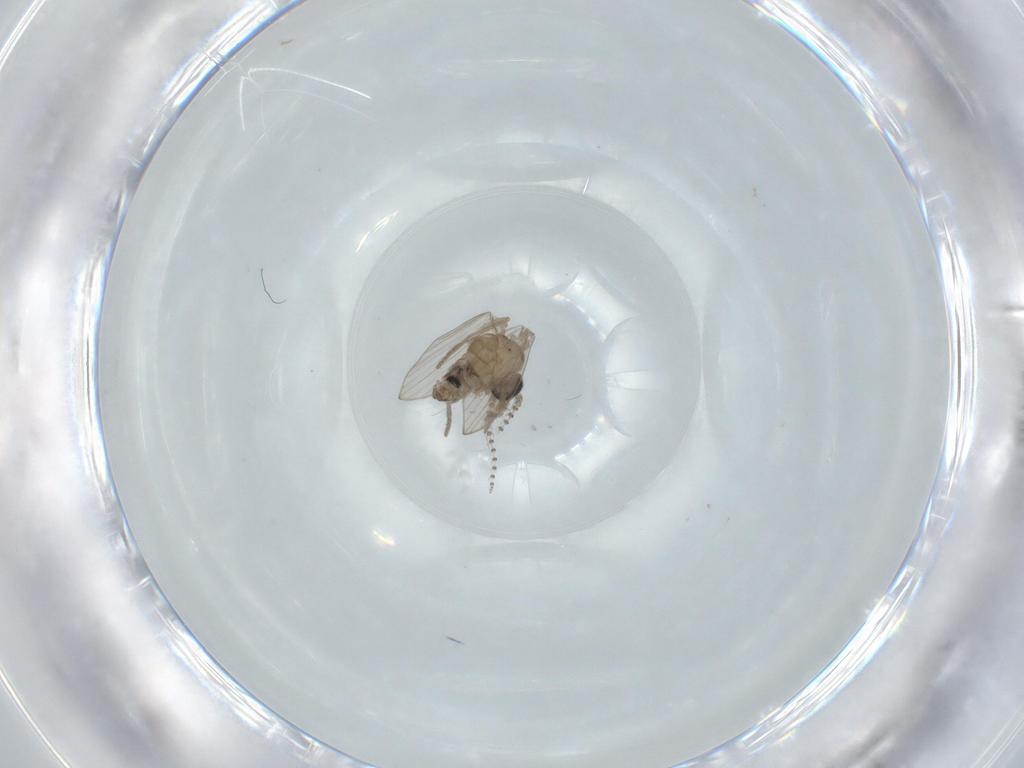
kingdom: Animalia
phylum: Arthropoda
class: Insecta
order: Diptera
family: Psychodidae
